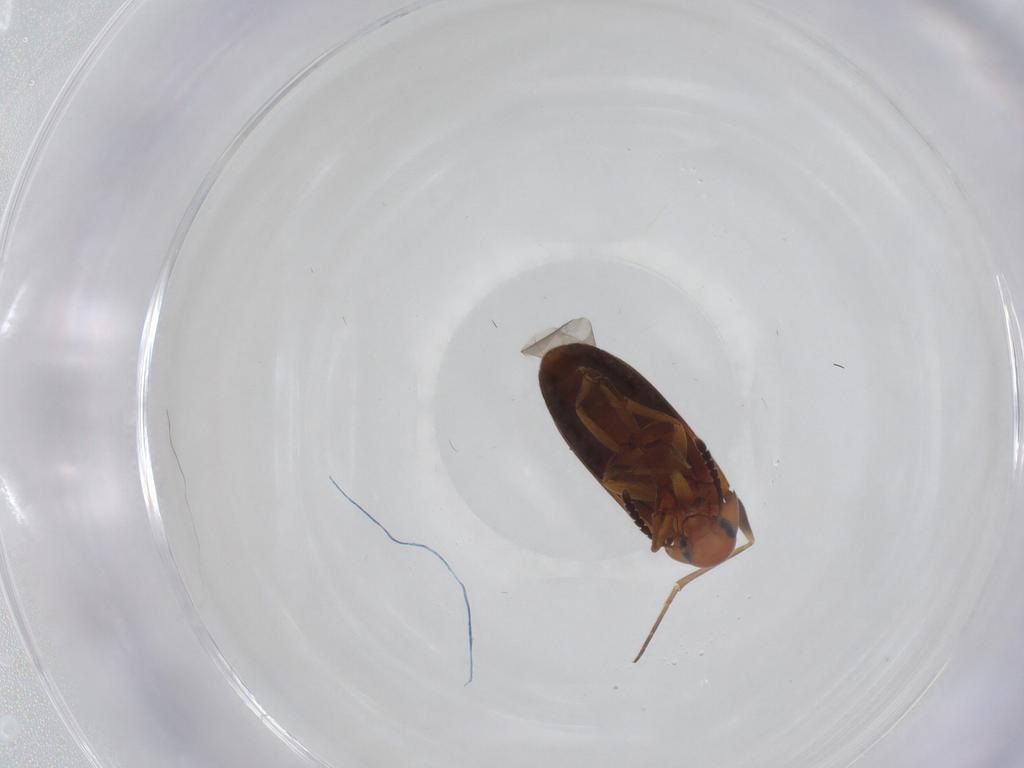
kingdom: Animalia
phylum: Arthropoda
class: Insecta
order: Coleoptera
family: Scraptiidae
